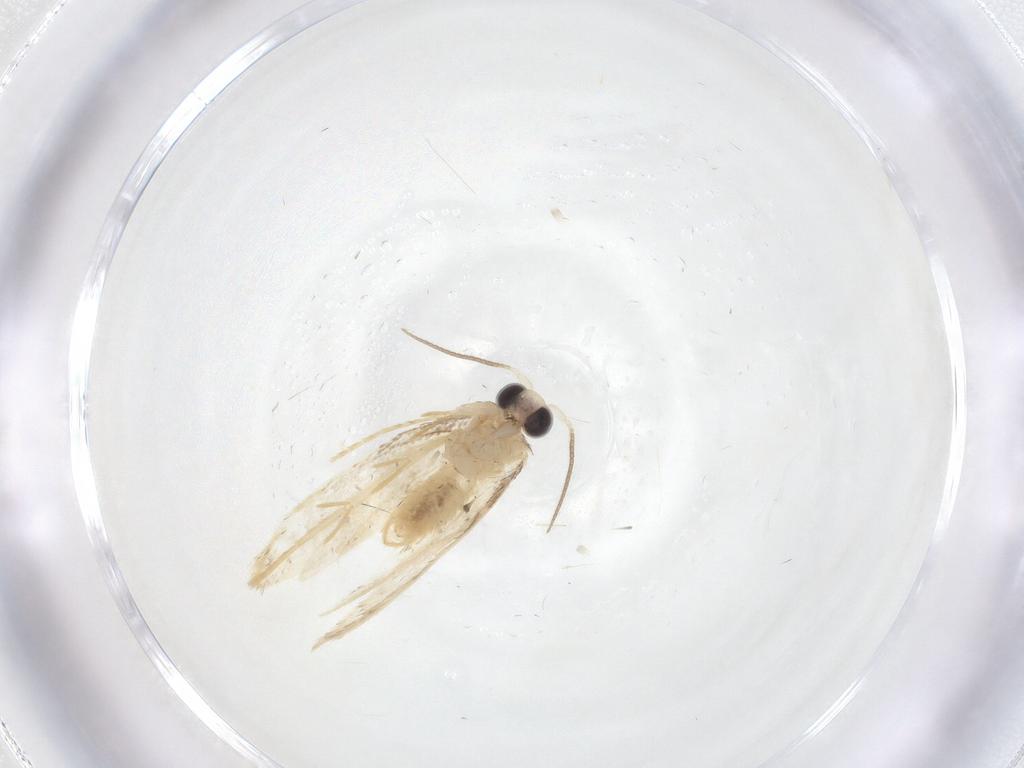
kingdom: Animalia
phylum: Arthropoda
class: Insecta
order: Lepidoptera
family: Psychidae
